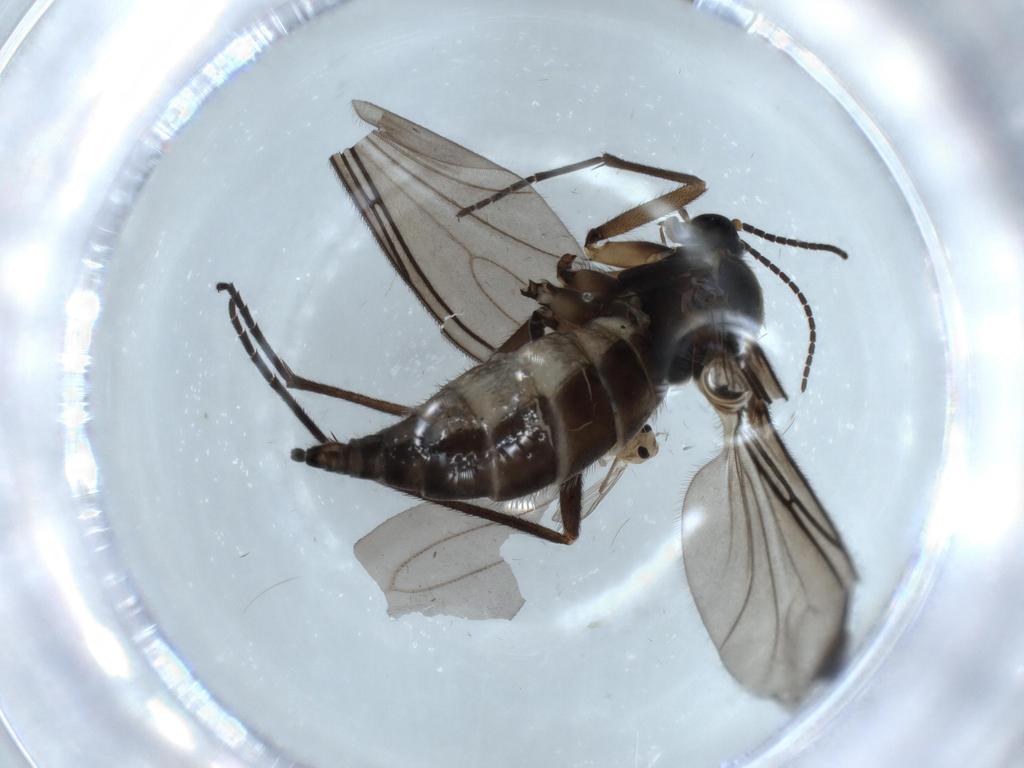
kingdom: Animalia
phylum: Arthropoda
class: Insecta
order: Diptera
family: Sciaridae
